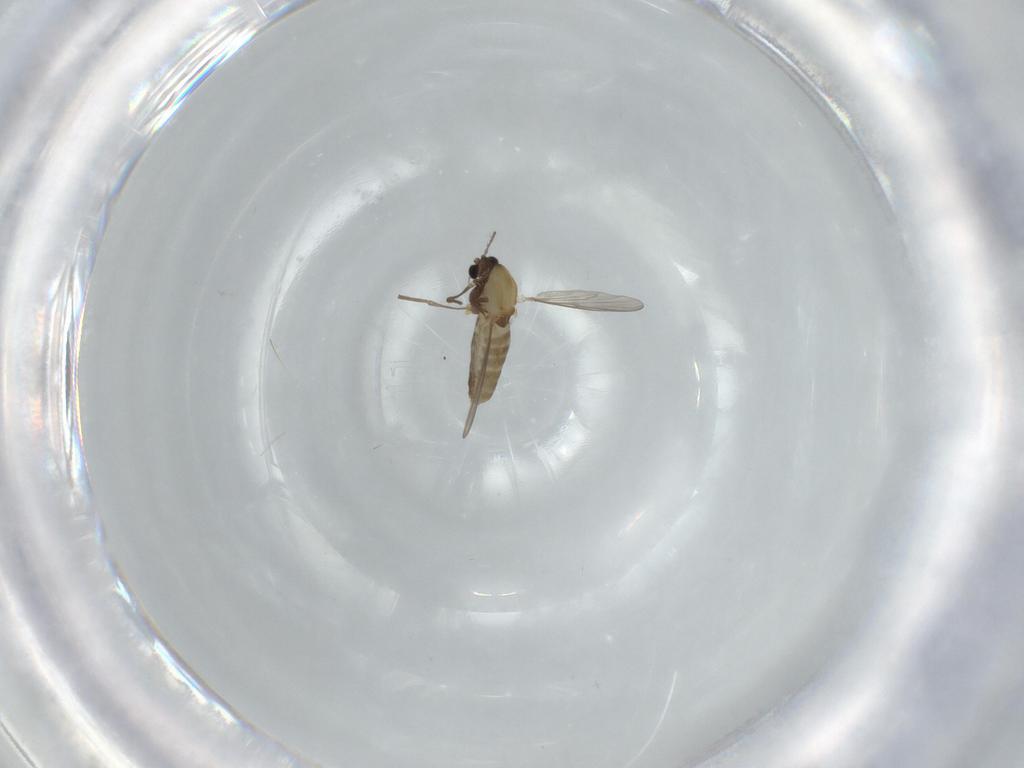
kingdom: Animalia
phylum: Arthropoda
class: Insecta
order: Diptera
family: Chironomidae
